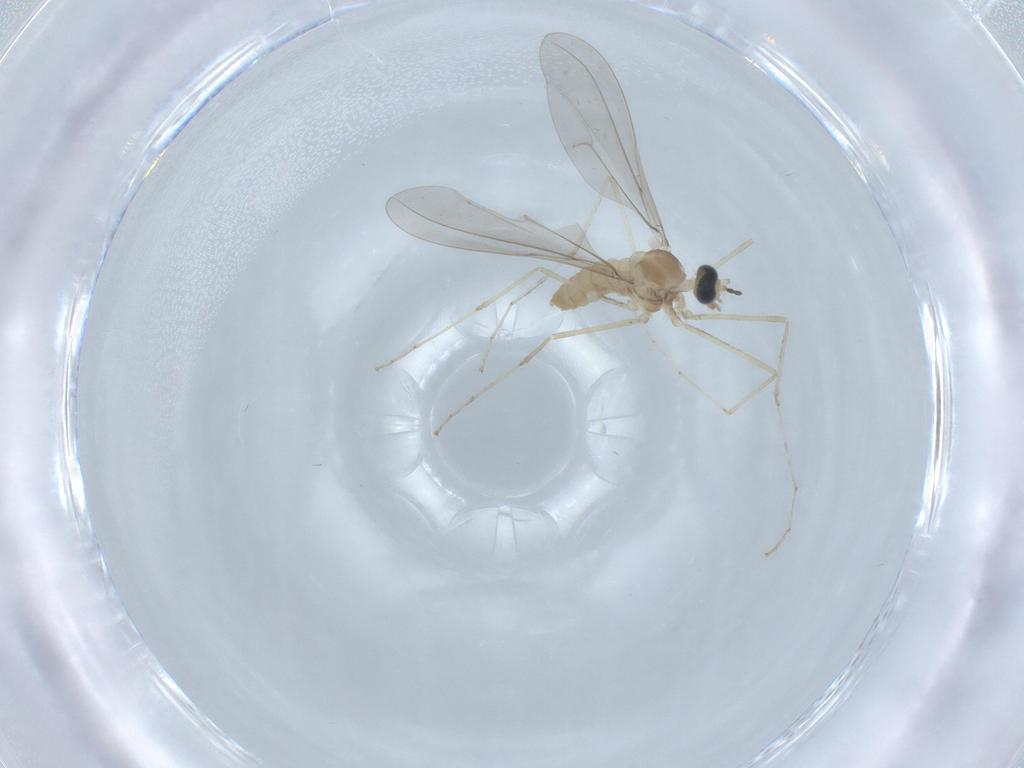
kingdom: Animalia
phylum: Arthropoda
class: Insecta
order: Diptera
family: Cecidomyiidae
